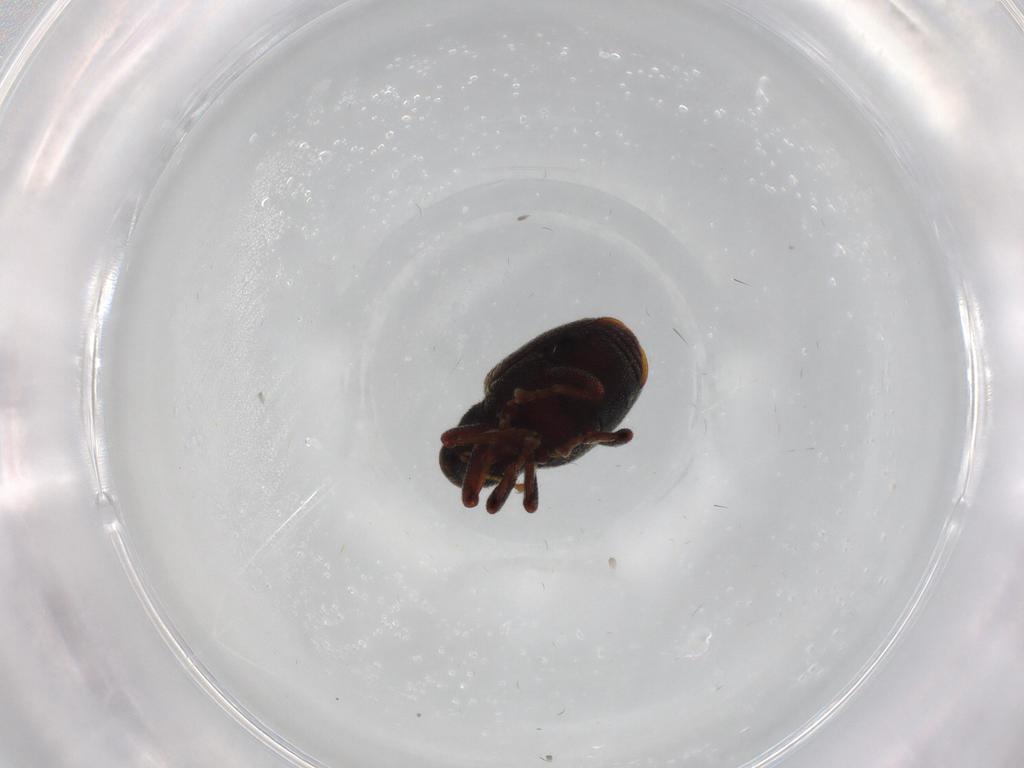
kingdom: Animalia
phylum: Arthropoda
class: Insecta
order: Coleoptera
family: Curculionidae
